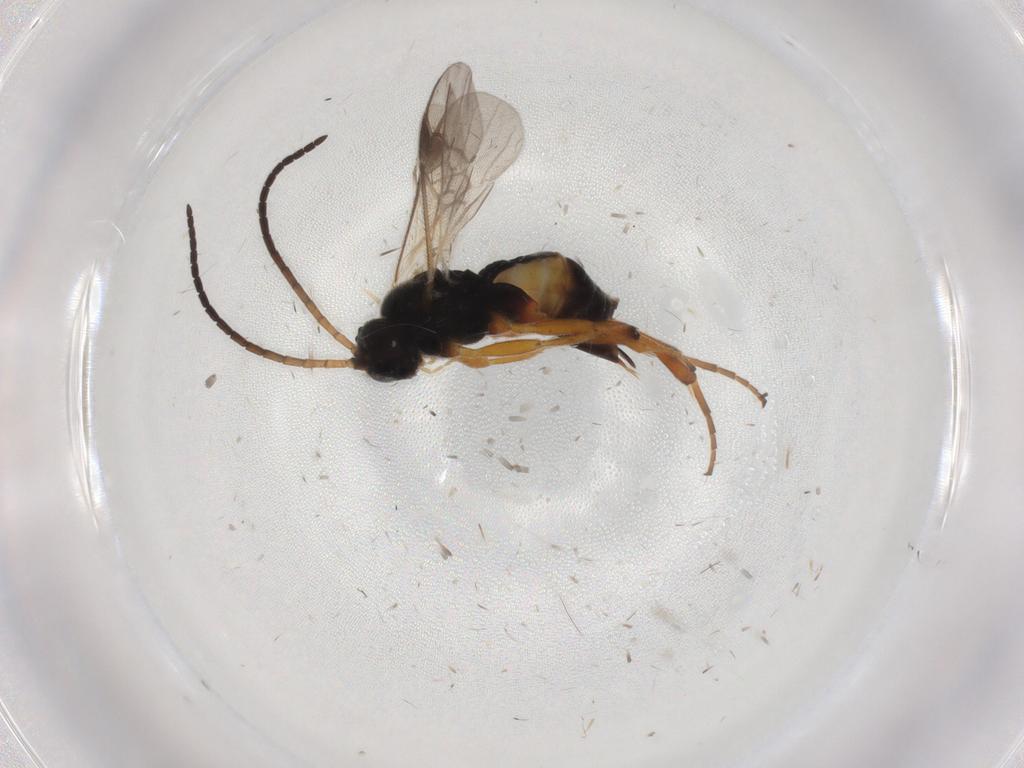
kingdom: Animalia
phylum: Arthropoda
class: Insecta
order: Hymenoptera
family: Braconidae
